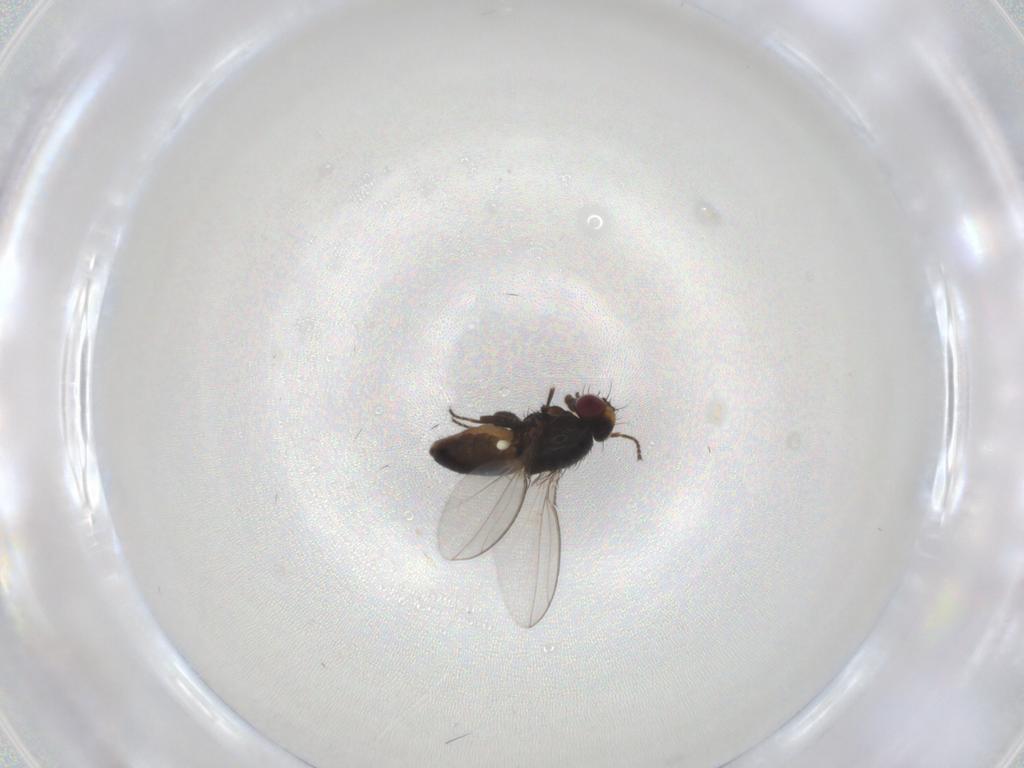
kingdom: Animalia
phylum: Arthropoda
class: Insecta
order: Diptera
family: Carnidae
